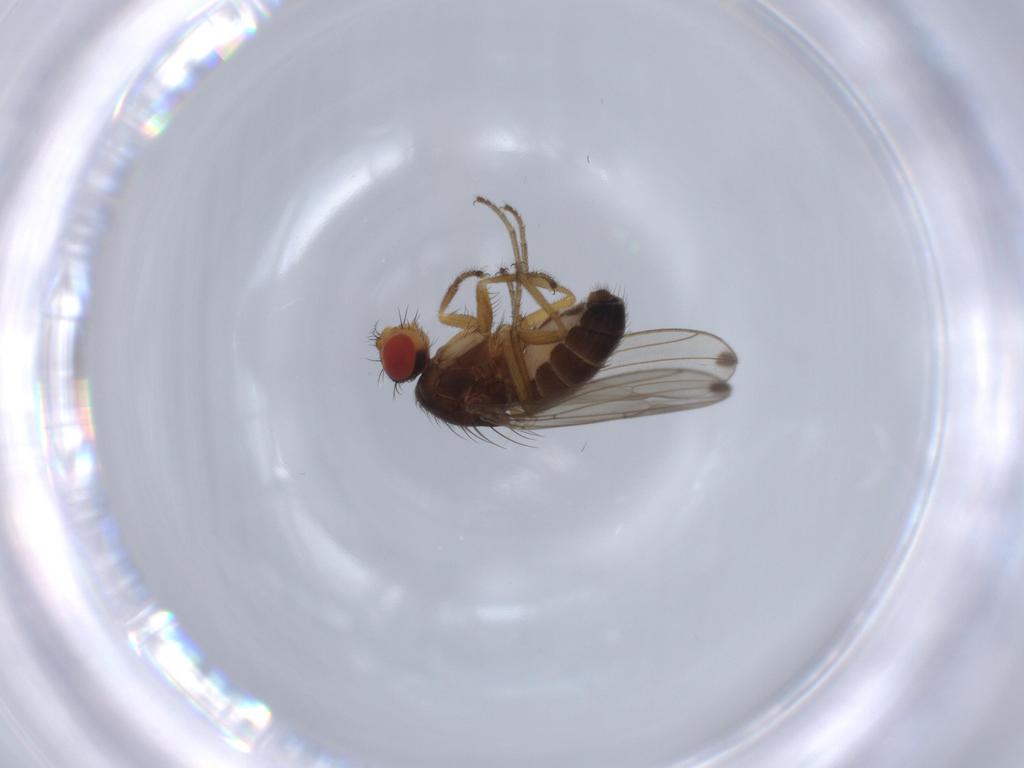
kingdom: Animalia
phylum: Arthropoda
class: Insecta
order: Diptera
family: Drosophilidae
